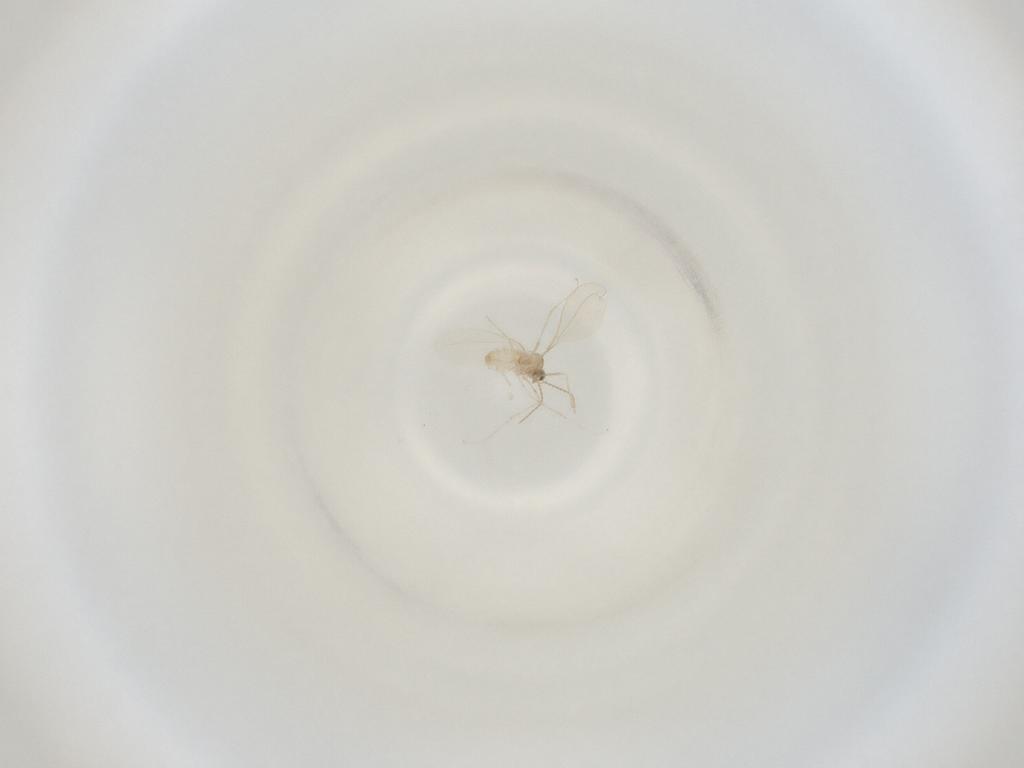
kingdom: Animalia
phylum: Arthropoda
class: Insecta
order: Diptera
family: Cecidomyiidae
